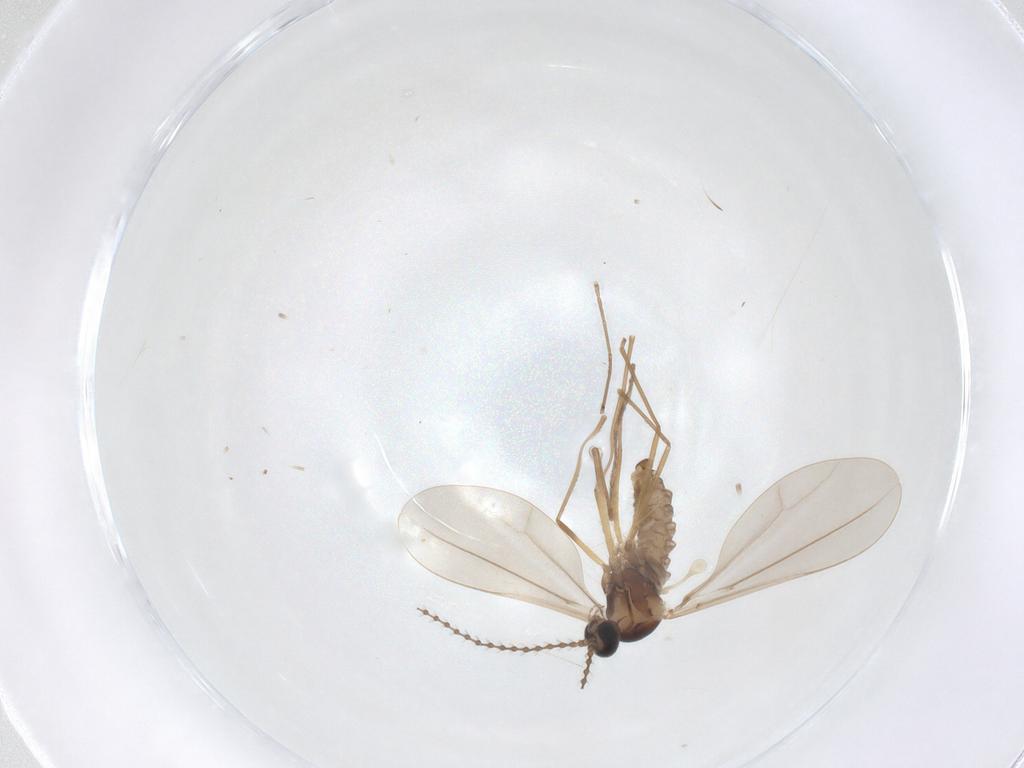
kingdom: Animalia
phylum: Arthropoda
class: Insecta
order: Diptera
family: Cecidomyiidae
